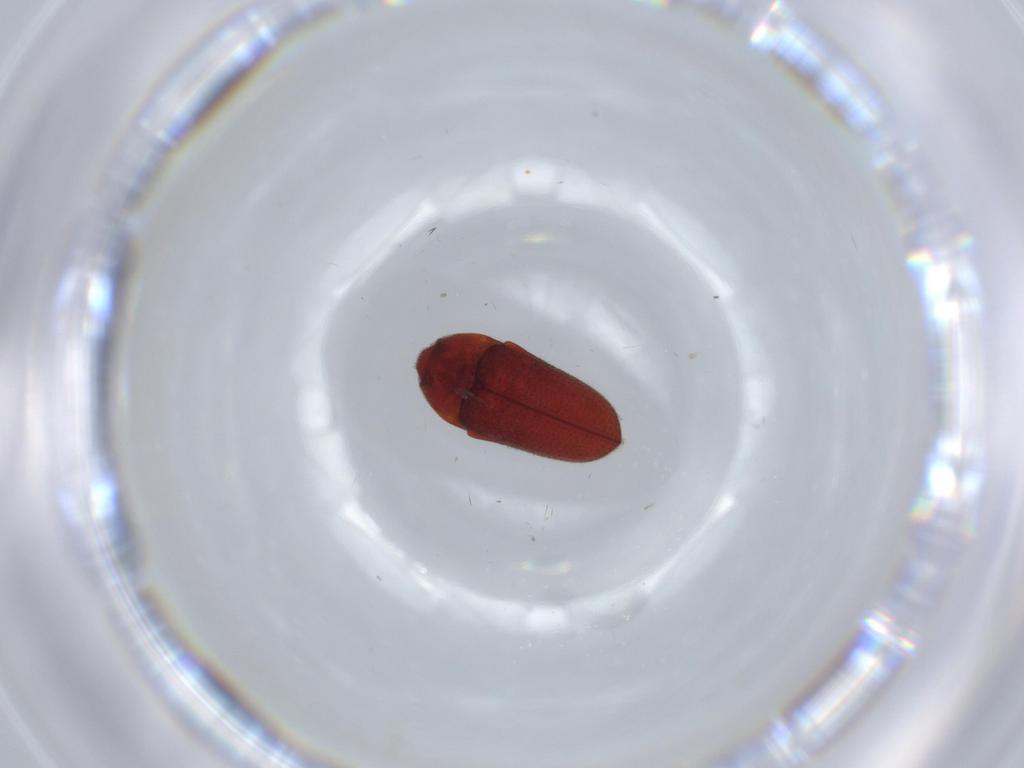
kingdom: Animalia
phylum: Arthropoda
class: Insecta
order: Coleoptera
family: Throscidae
